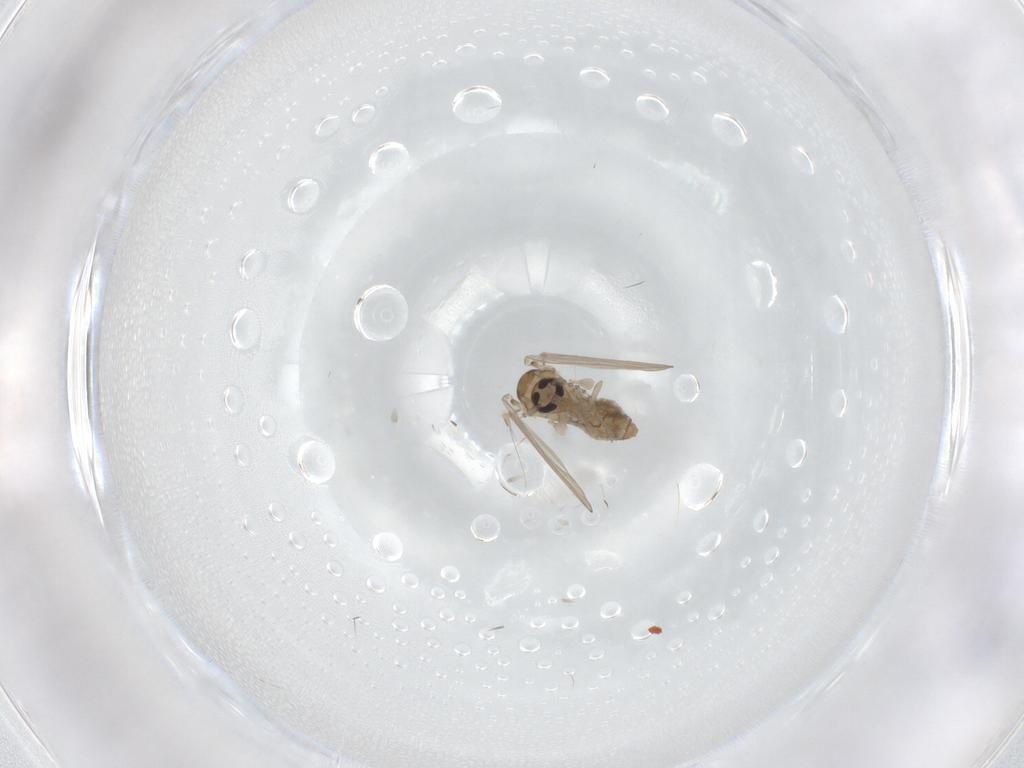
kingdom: Animalia
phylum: Arthropoda
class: Insecta
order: Diptera
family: Psychodidae
